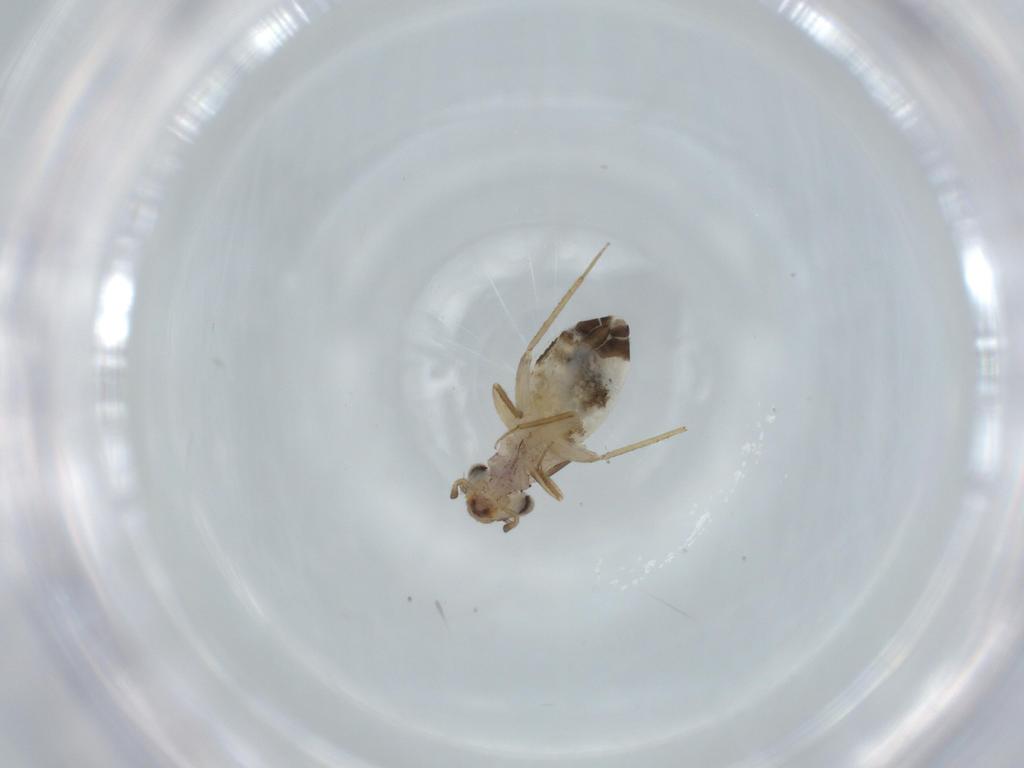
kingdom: Animalia
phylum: Arthropoda
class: Insecta
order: Psocodea
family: Lepidopsocidae
